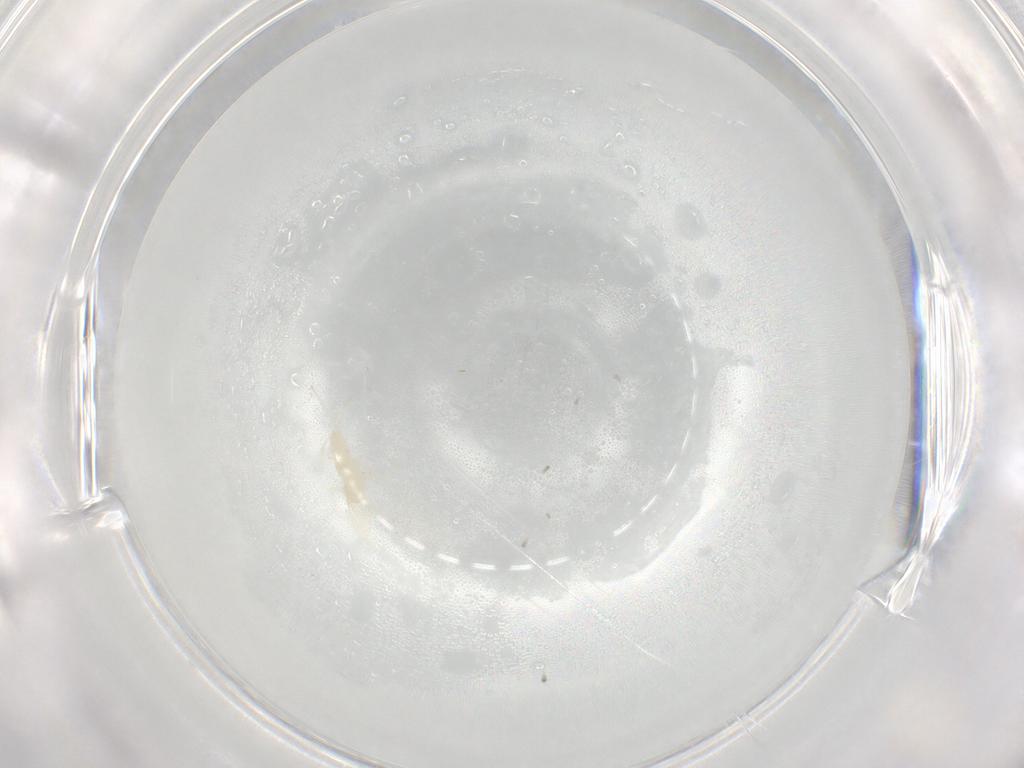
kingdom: Animalia
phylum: Arthropoda
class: Insecta
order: Diptera
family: Cecidomyiidae
